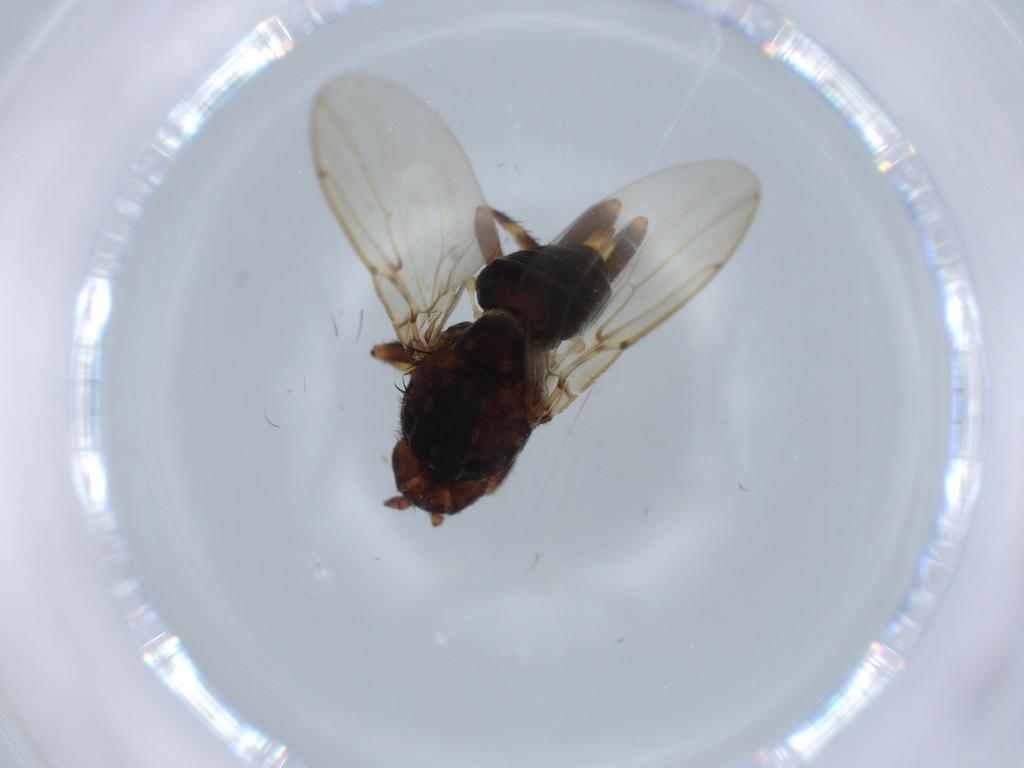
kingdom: Animalia
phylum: Arthropoda
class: Insecta
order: Diptera
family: Sphaeroceridae
